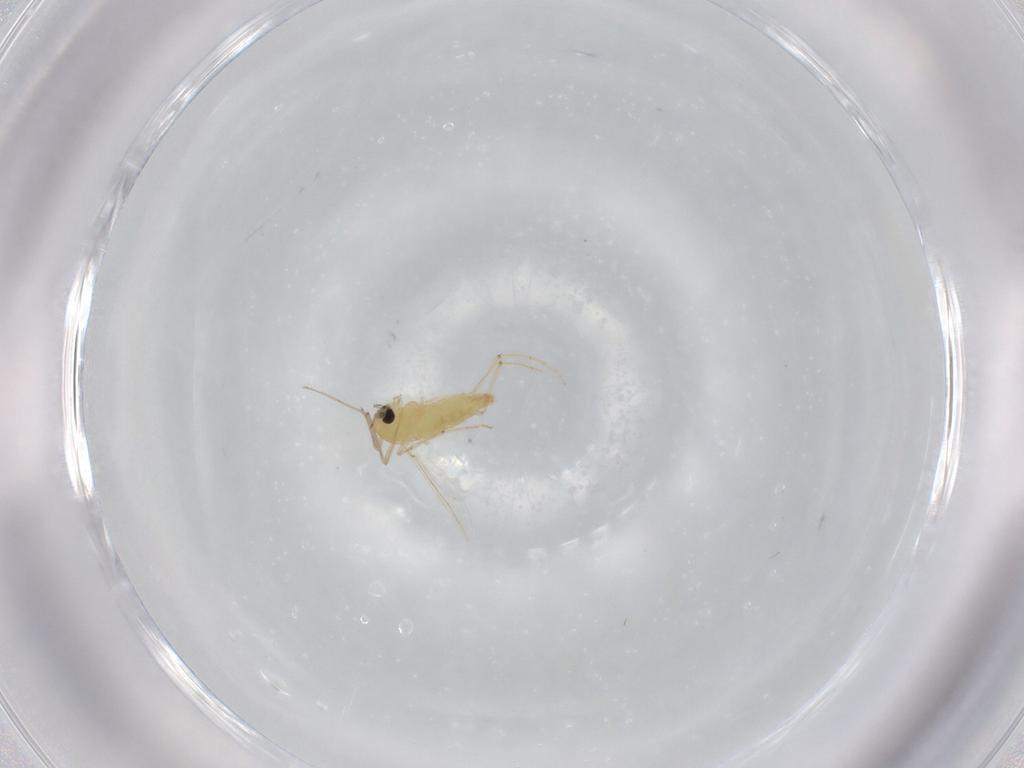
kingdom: Animalia
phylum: Arthropoda
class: Insecta
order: Diptera
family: Chironomidae
